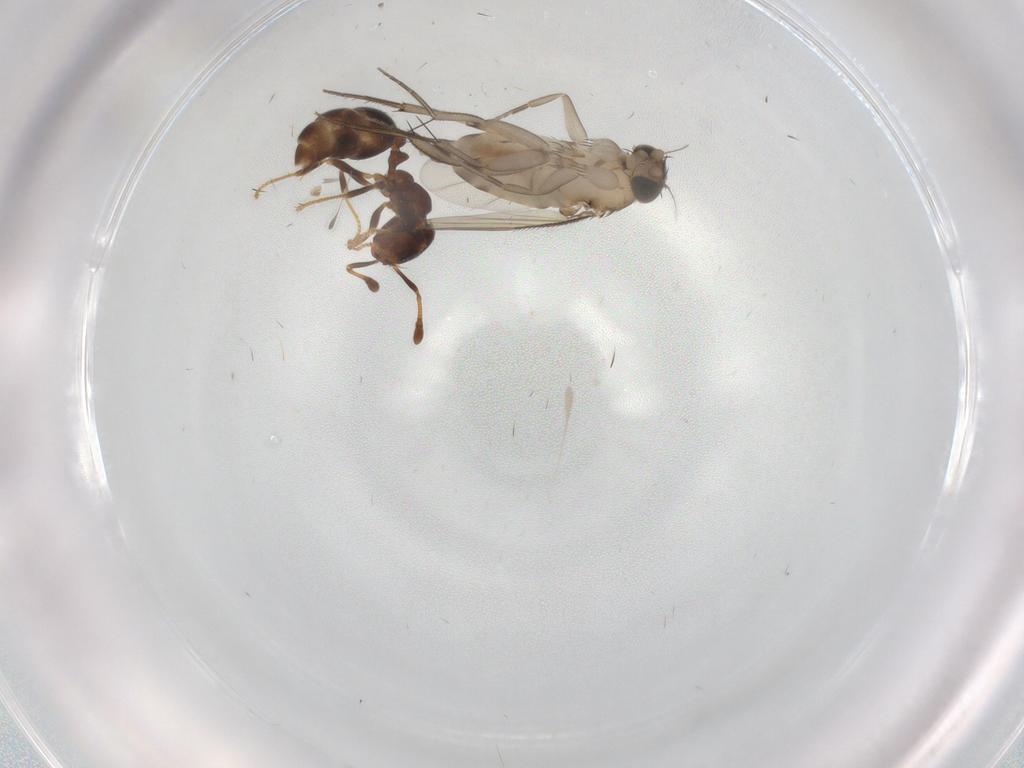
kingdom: Animalia
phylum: Arthropoda
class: Insecta
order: Diptera
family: Phoridae
